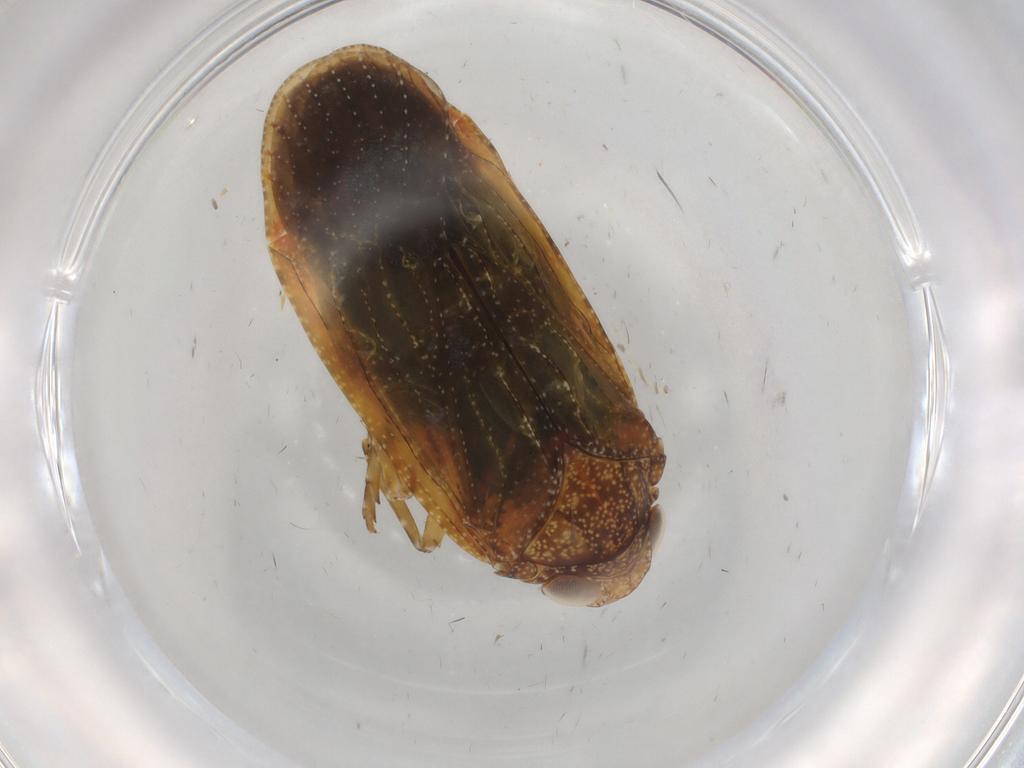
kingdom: Animalia
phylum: Arthropoda
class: Insecta
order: Hemiptera
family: Achilidae
